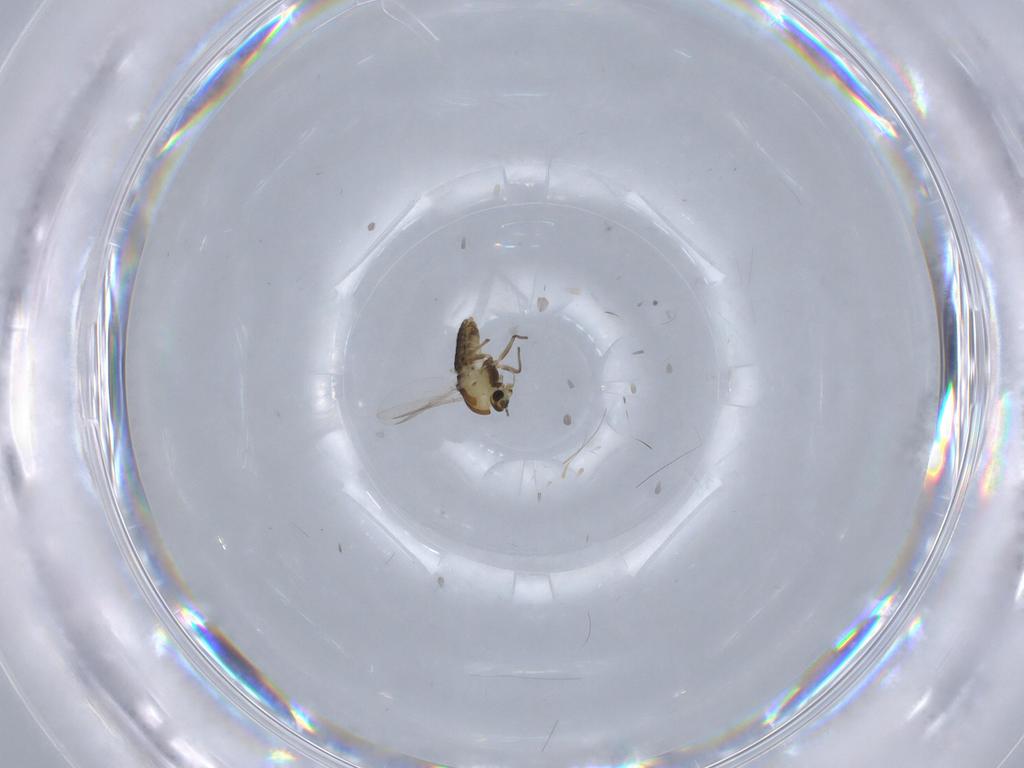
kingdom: Animalia
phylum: Arthropoda
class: Insecta
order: Diptera
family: Chironomidae
